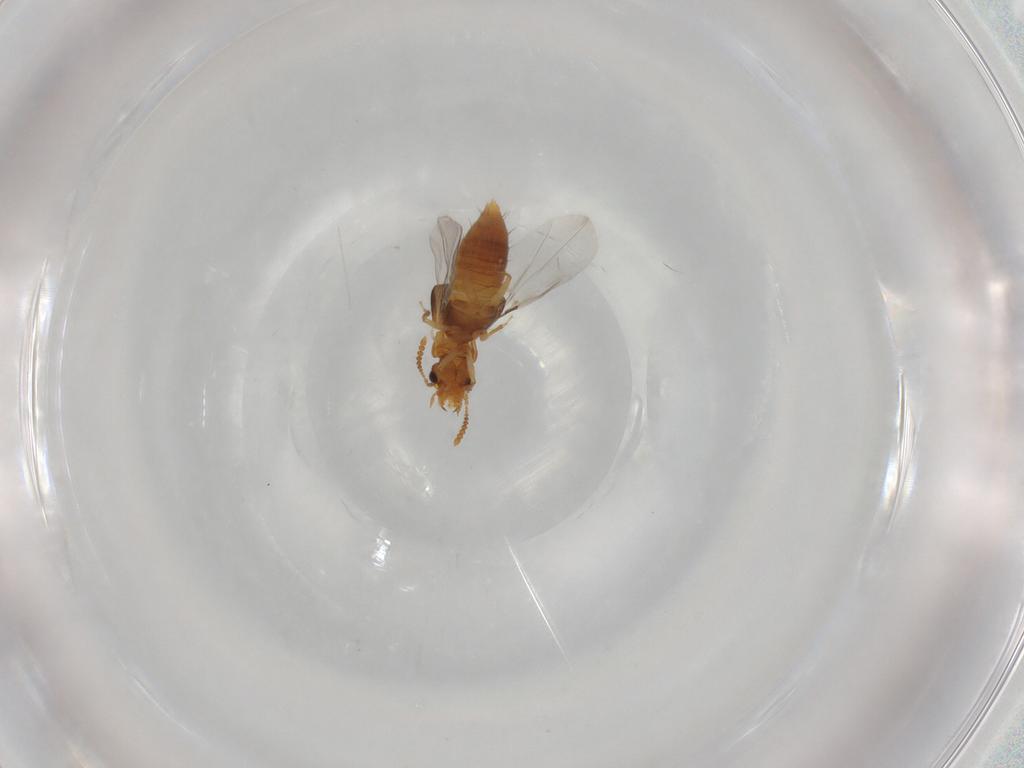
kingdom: Animalia
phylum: Arthropoda
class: Insecta
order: Coleoptera
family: Staphylinidae
